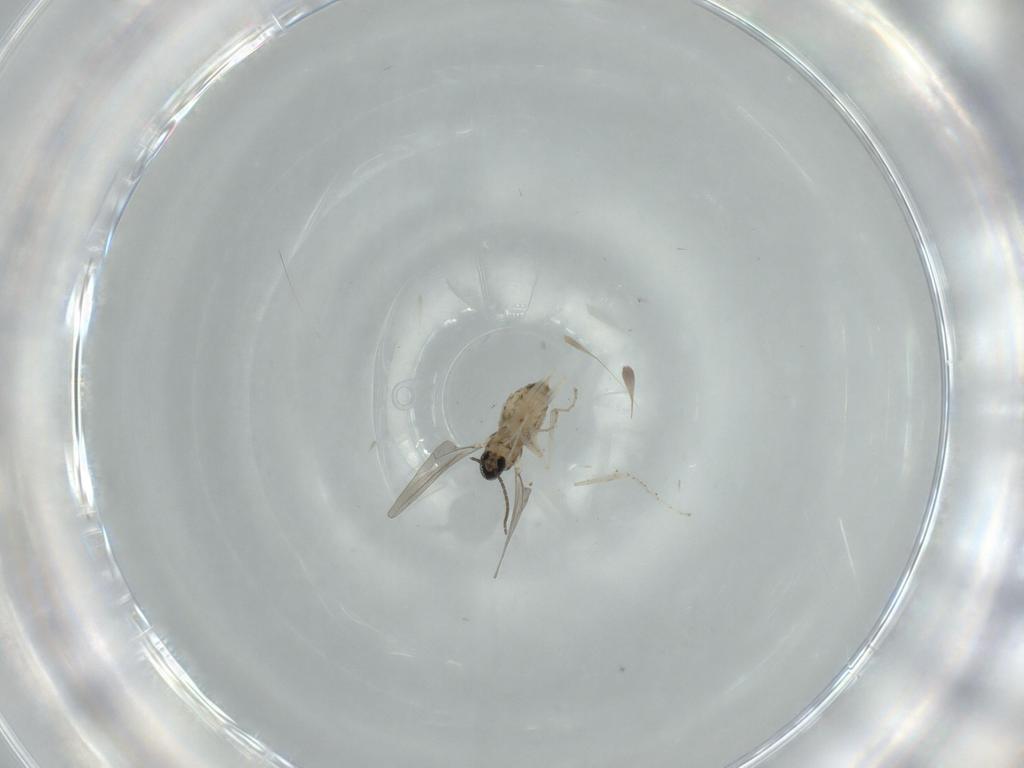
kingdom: Animalia
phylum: Arthropoda
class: Insecta
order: Diptera
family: Cecidomyiidae
